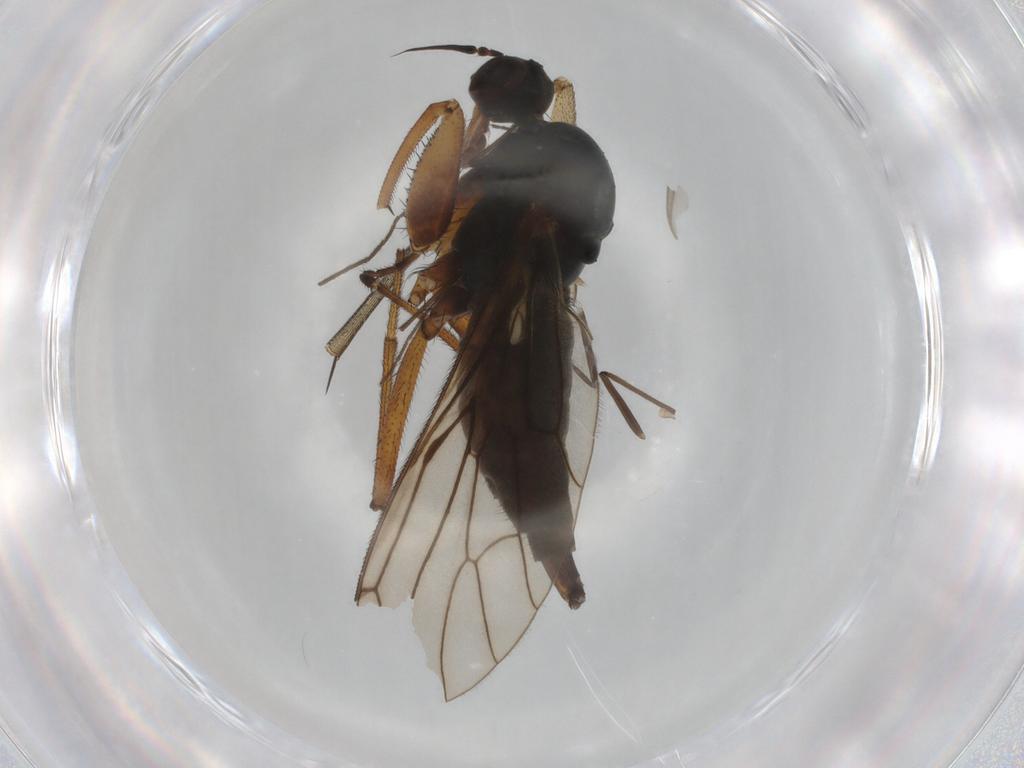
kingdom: Animalia
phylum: Arthropoda
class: Insecta
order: Diptera
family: Empididae
